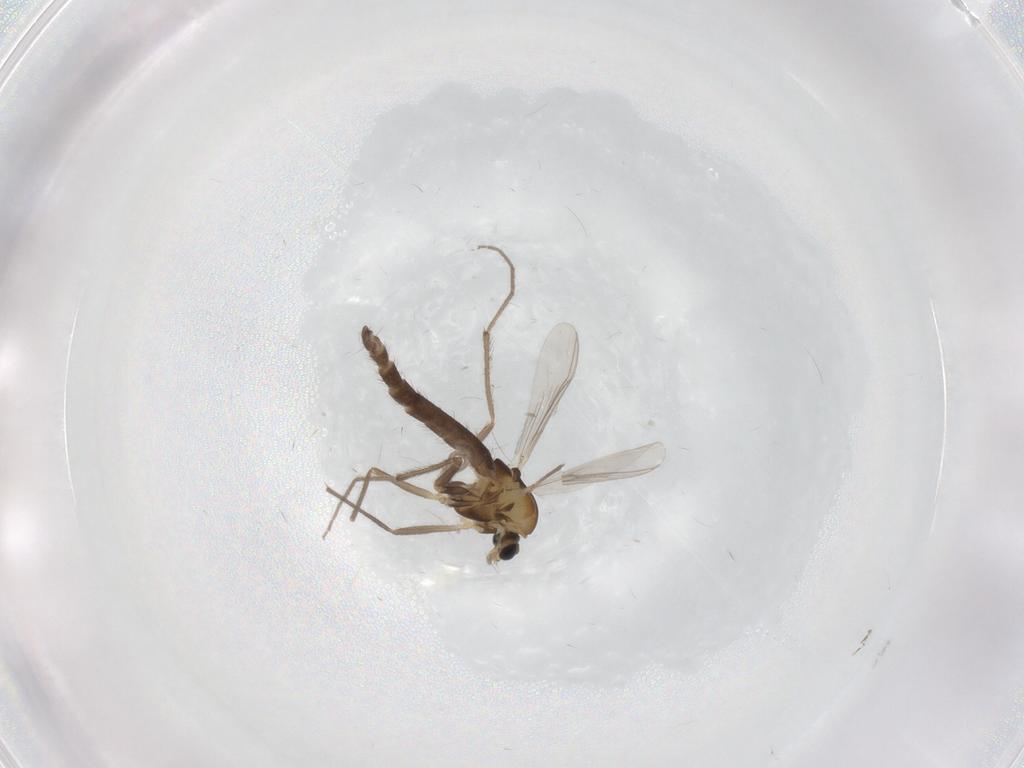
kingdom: Animalia
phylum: Arthropoda
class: Insecta
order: Diptera
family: Chironomidae
